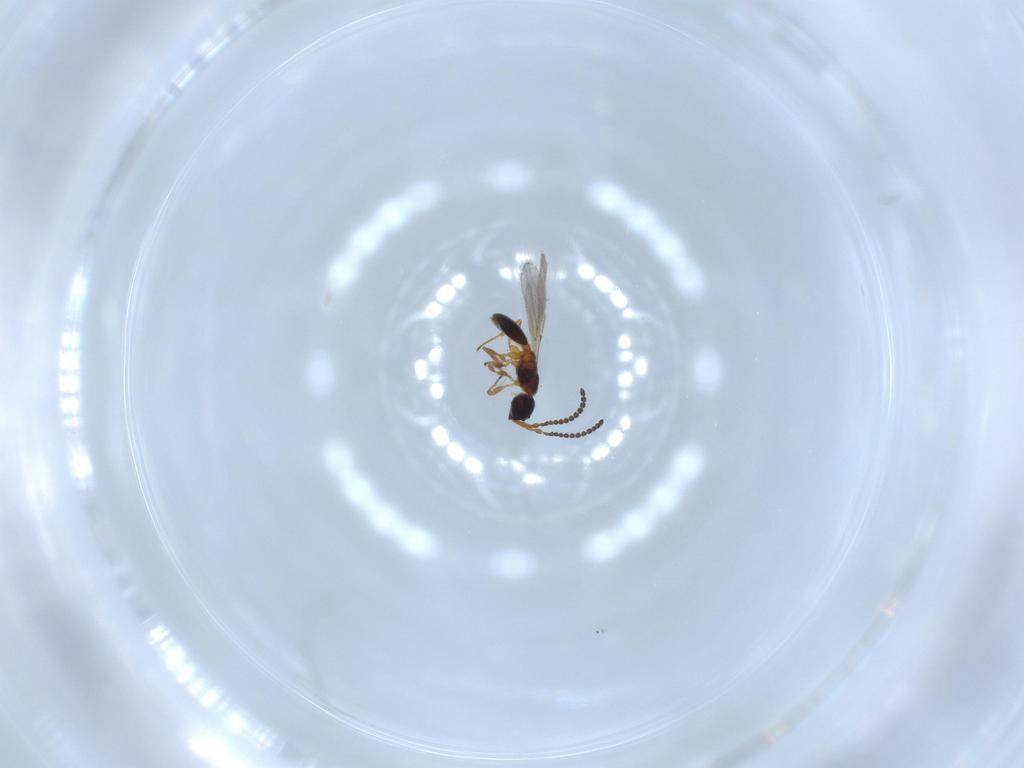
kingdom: Animalia
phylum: Arthropoda
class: Insecta
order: Hymenoptera
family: Diapriidae
